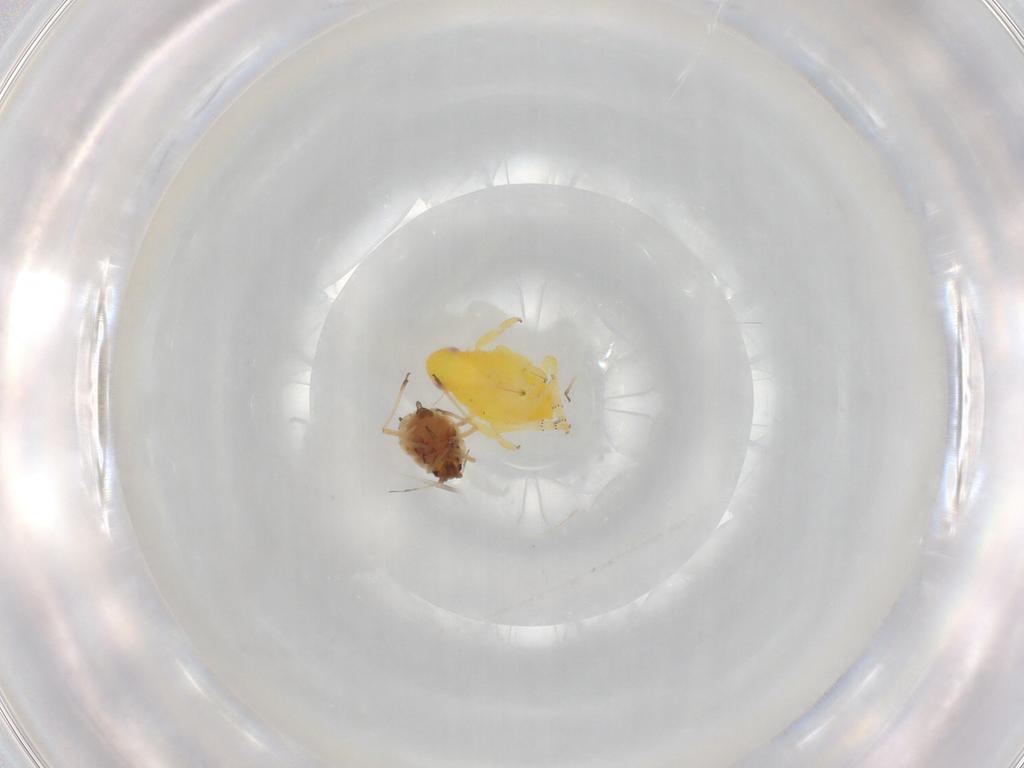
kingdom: Animalia
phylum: Arthropoda
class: Insecta
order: Hemiptera
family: Aphididae
